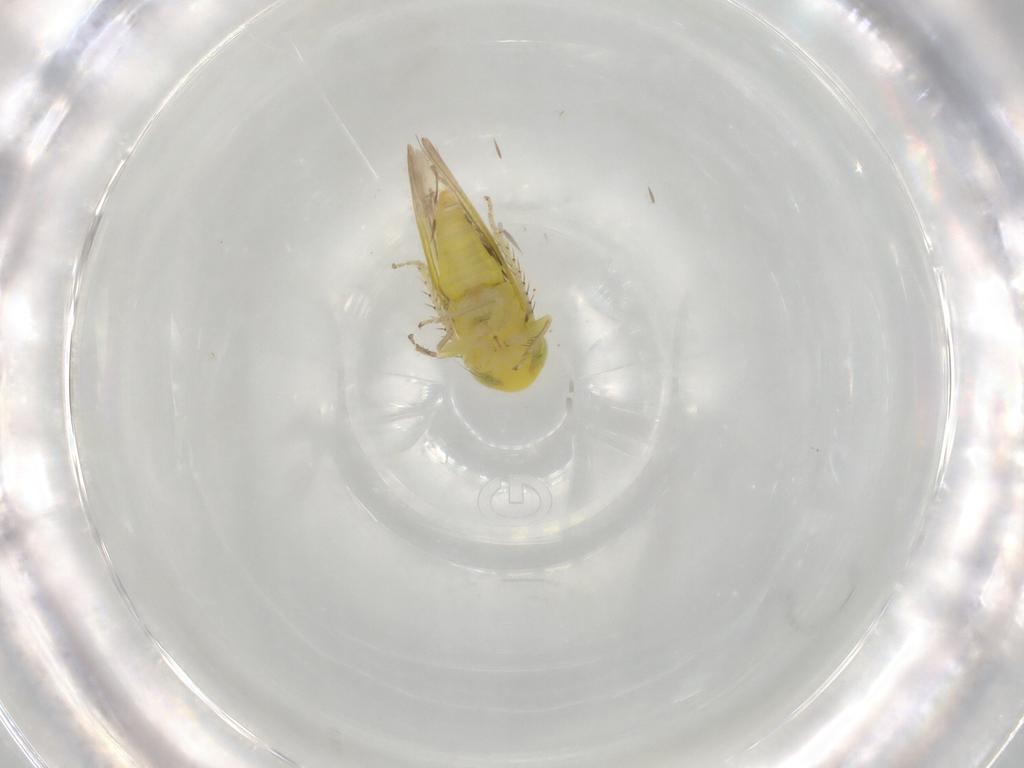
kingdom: Animalia
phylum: Arthropoda
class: Insecta
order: Hemiptera
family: Cicadellidae
